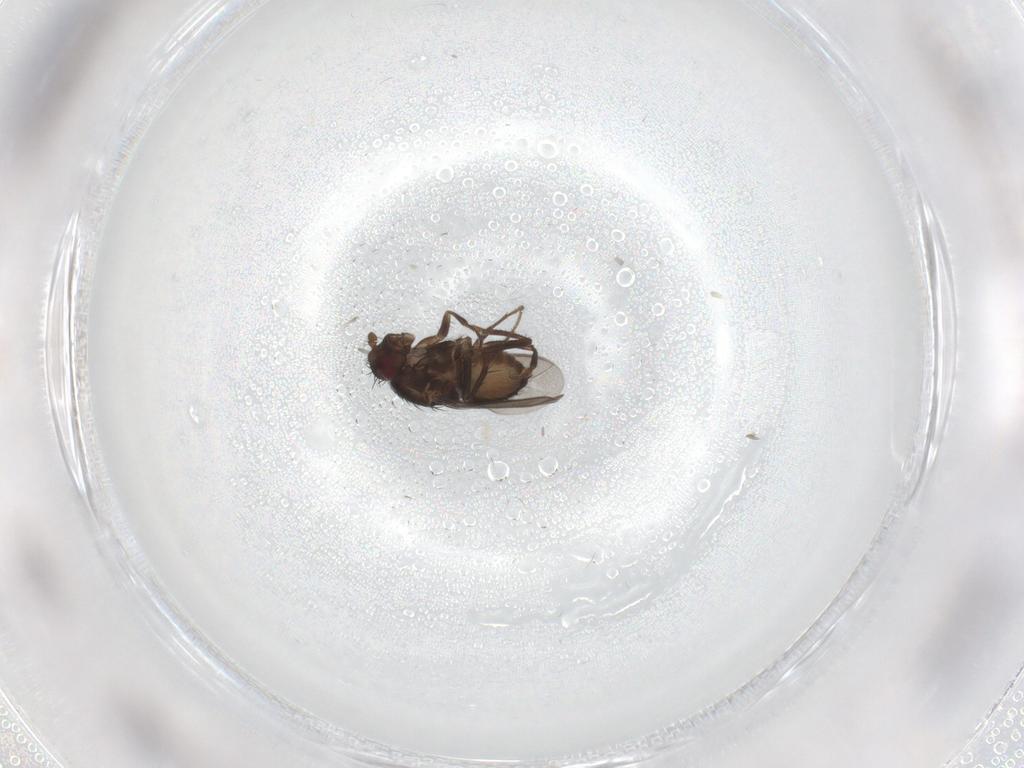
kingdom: Animalia
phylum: Arthropoda
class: Insecta
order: Diptera
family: Phoridae
